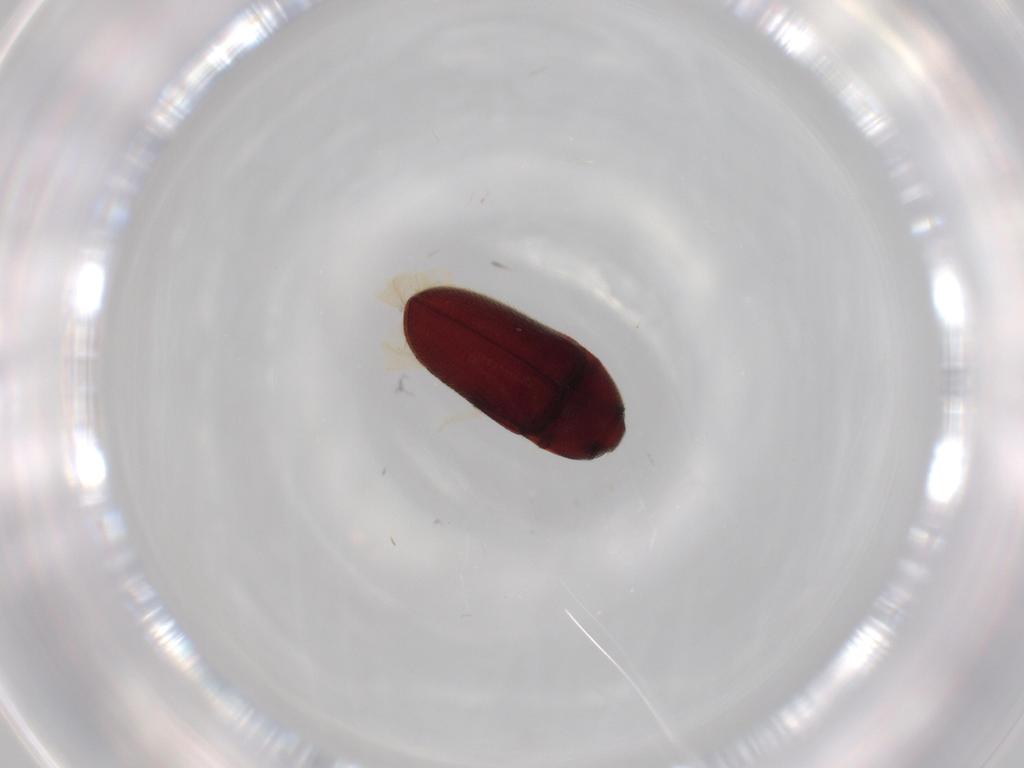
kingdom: Animalia
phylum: Arthropoda
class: Insecta
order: Coleoptera
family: Throscidae
